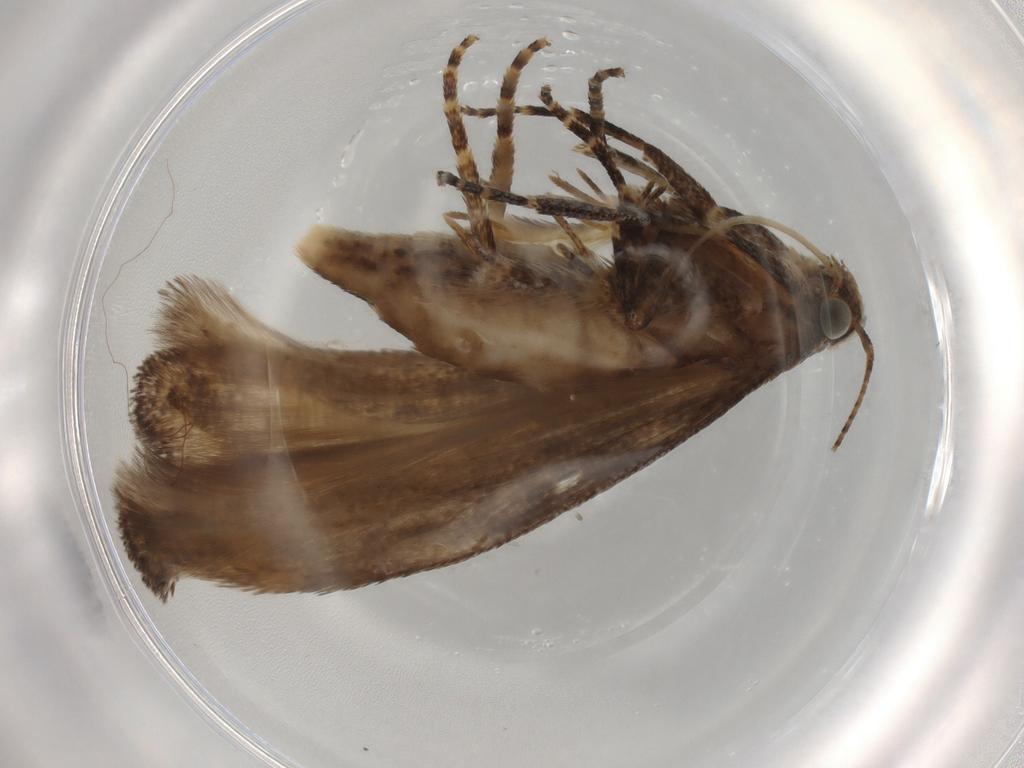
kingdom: Animalia
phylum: Arthropoda
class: Insecta
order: Lepidoptera
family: Gelechiidae
